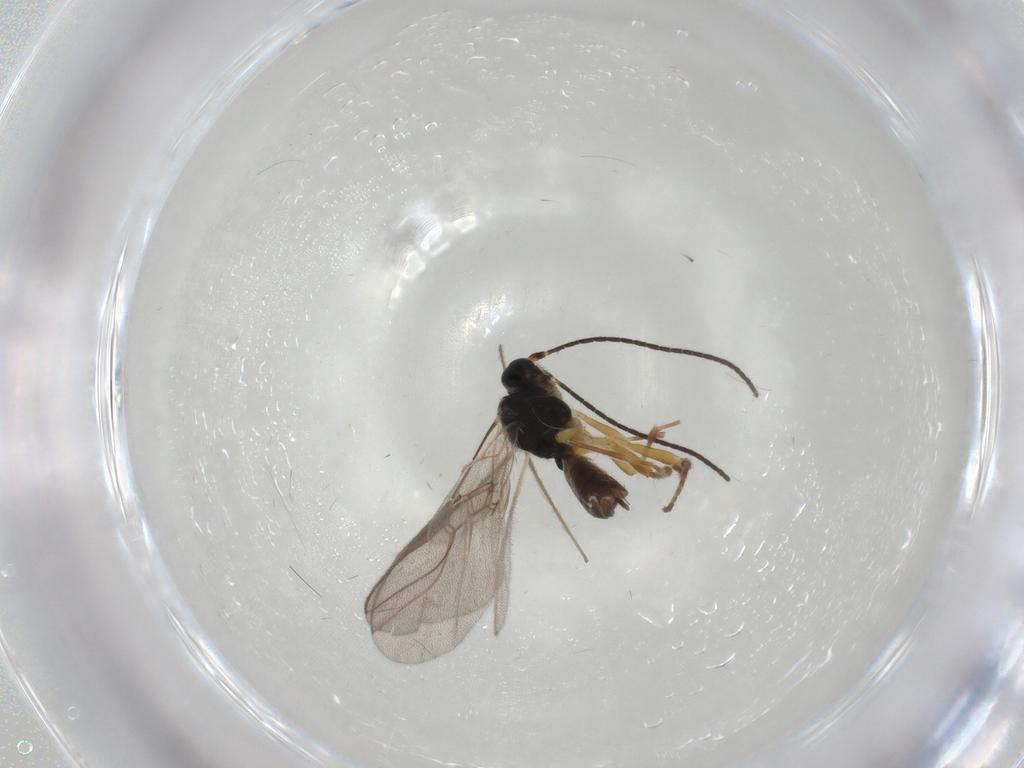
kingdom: Animalia
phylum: Arthropoda
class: Insecta
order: Hymenoptera
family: Braconidae
